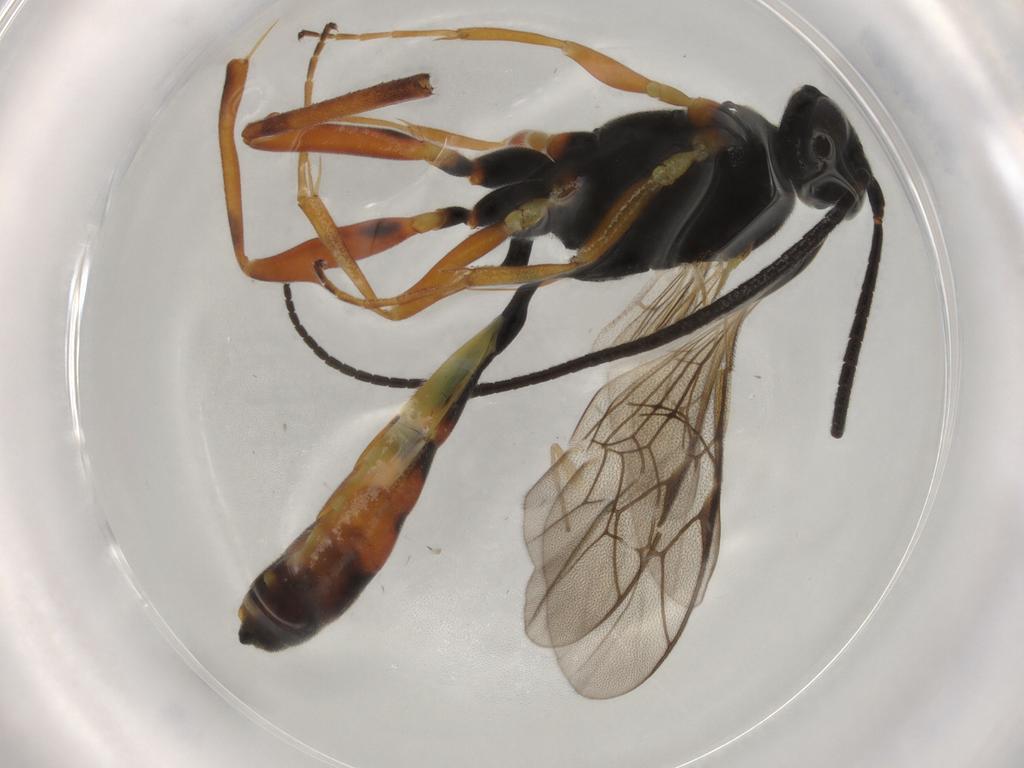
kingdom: Animalia
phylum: Arthropoda
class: Insecta
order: Hymenoptera
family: Ichneumonidae
